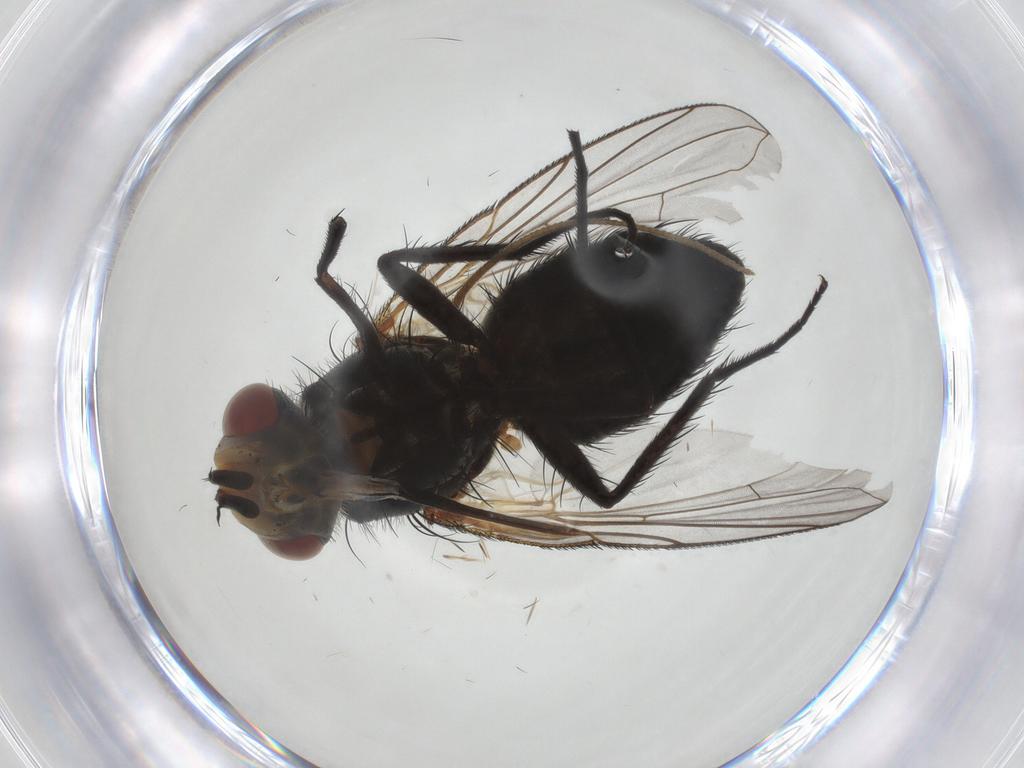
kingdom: Animalia
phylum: Arthropoda
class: Insecta
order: Diptera
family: Tachinidae
